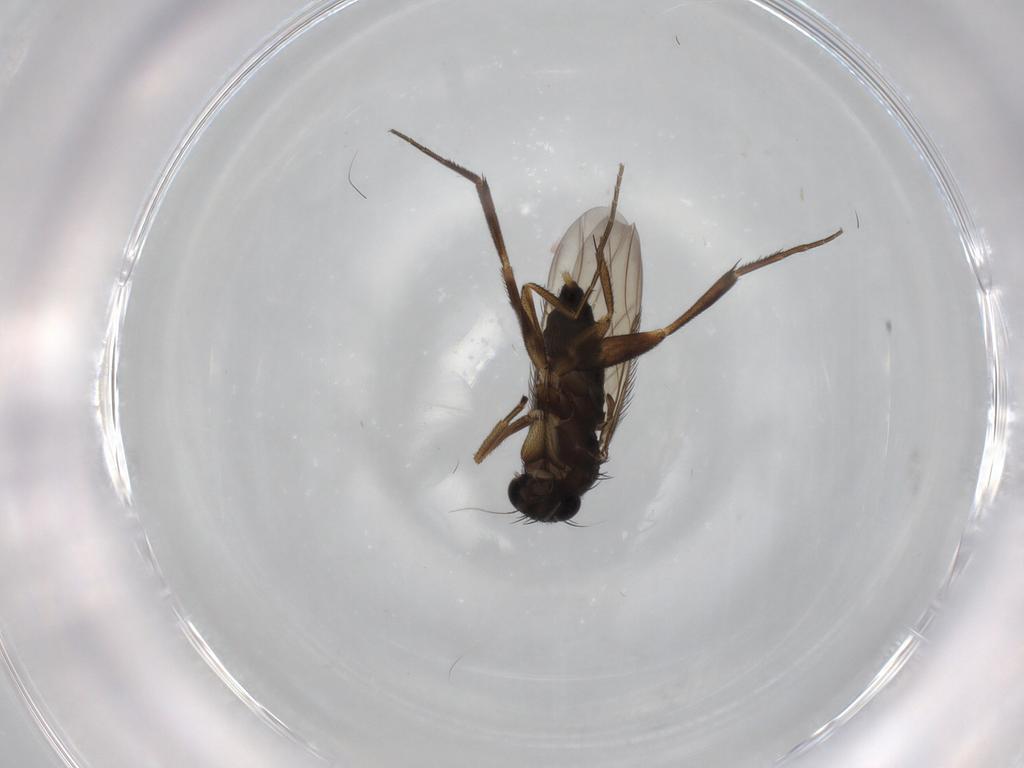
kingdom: Animalia
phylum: Arthropoda
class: Insecta
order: Diptera
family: Phoridae
